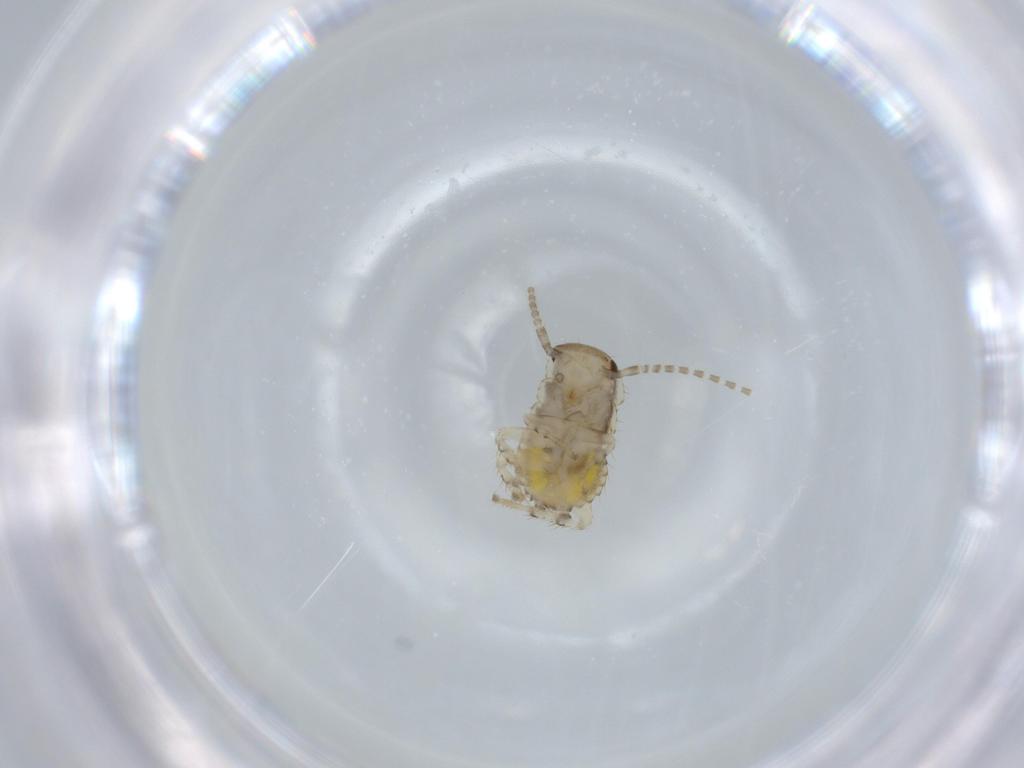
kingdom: Animalia
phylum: Arthropoda
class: Insecta
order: Blattodea
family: Ectobiidae
